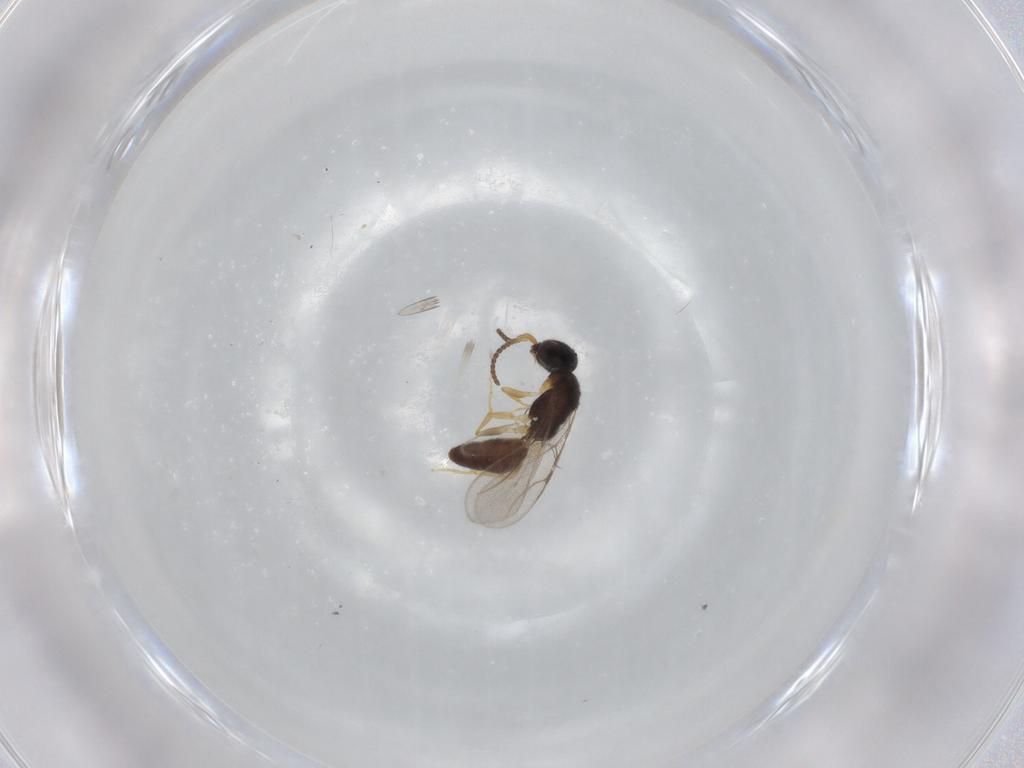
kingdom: Animalia
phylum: Arthropoda
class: Insecta
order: Hymenoptera
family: Bethylidae
